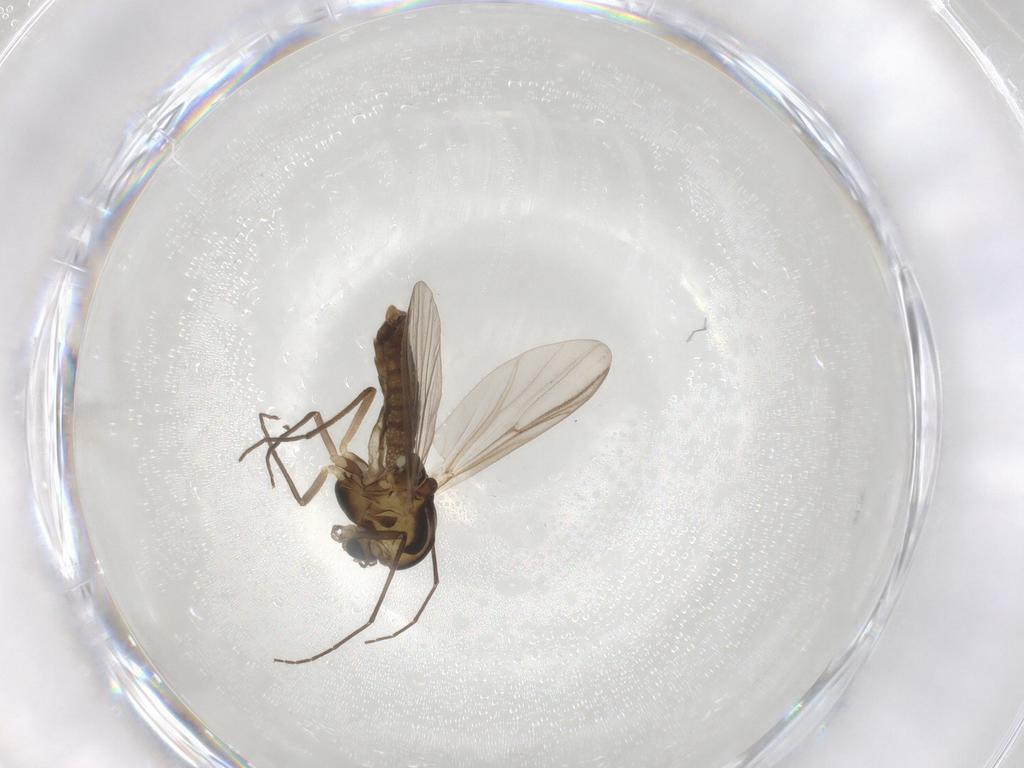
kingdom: Animalia
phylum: Arthropoda
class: Insecta
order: Diptera
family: Chironomidae
